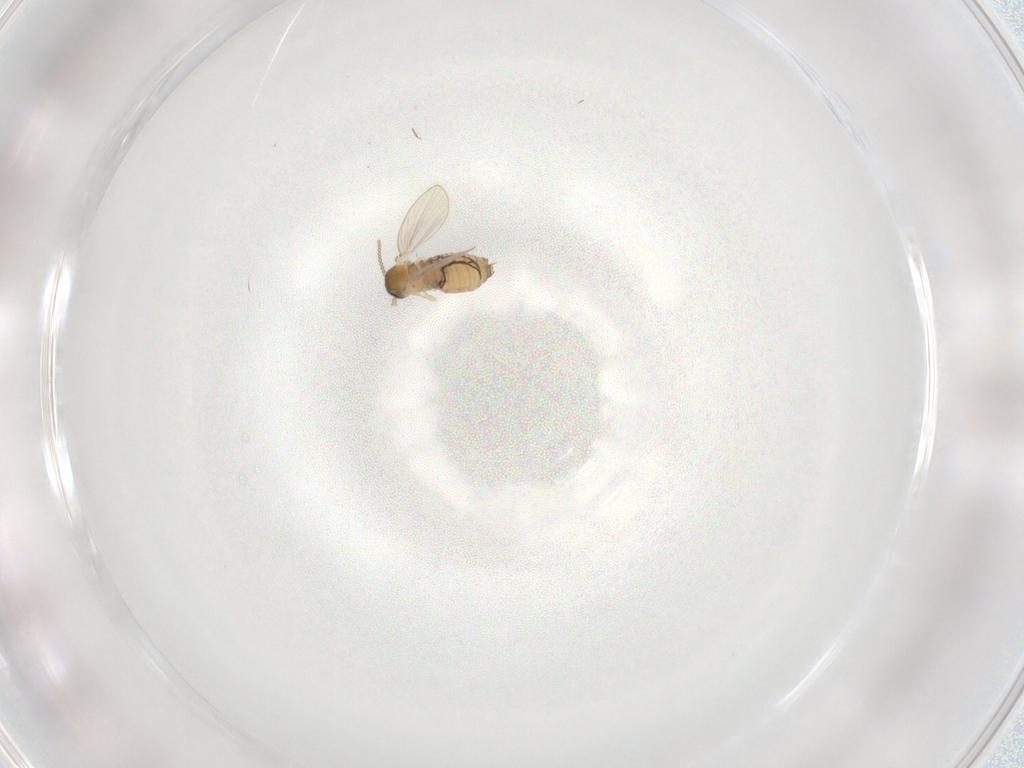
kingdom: Animalia
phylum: Arthropoda
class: Insecta
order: Diptera
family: Psychodidae
